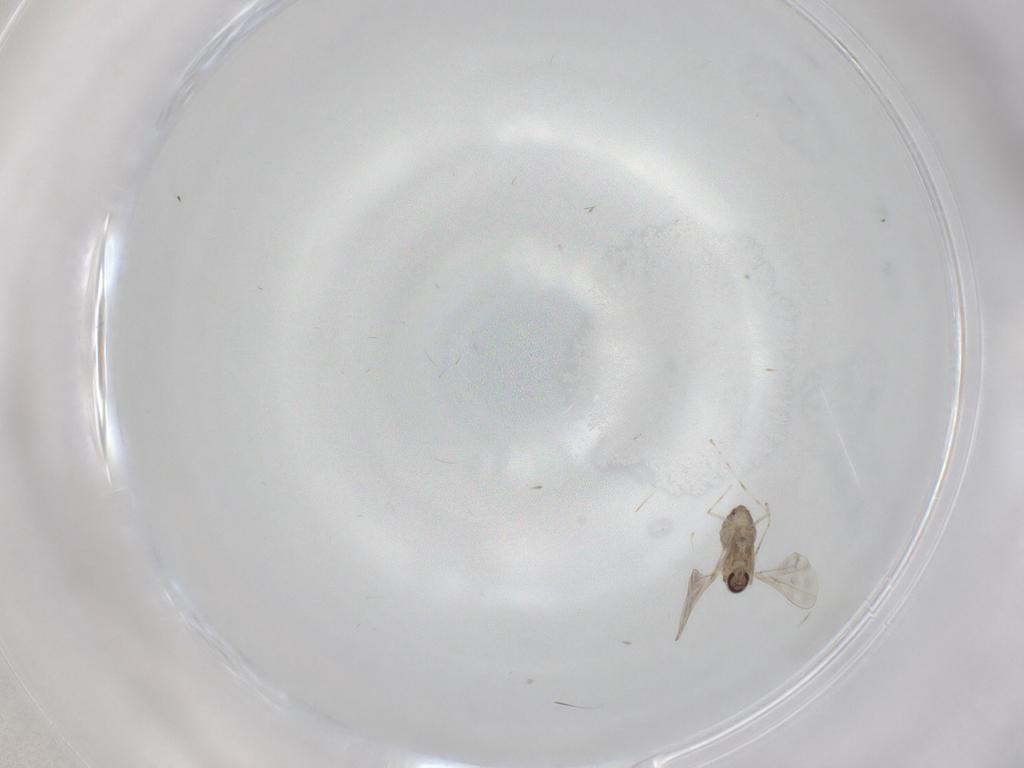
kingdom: Animalia
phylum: Arthropoda
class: Insecta
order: Diptera
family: Cecidomyiidae
